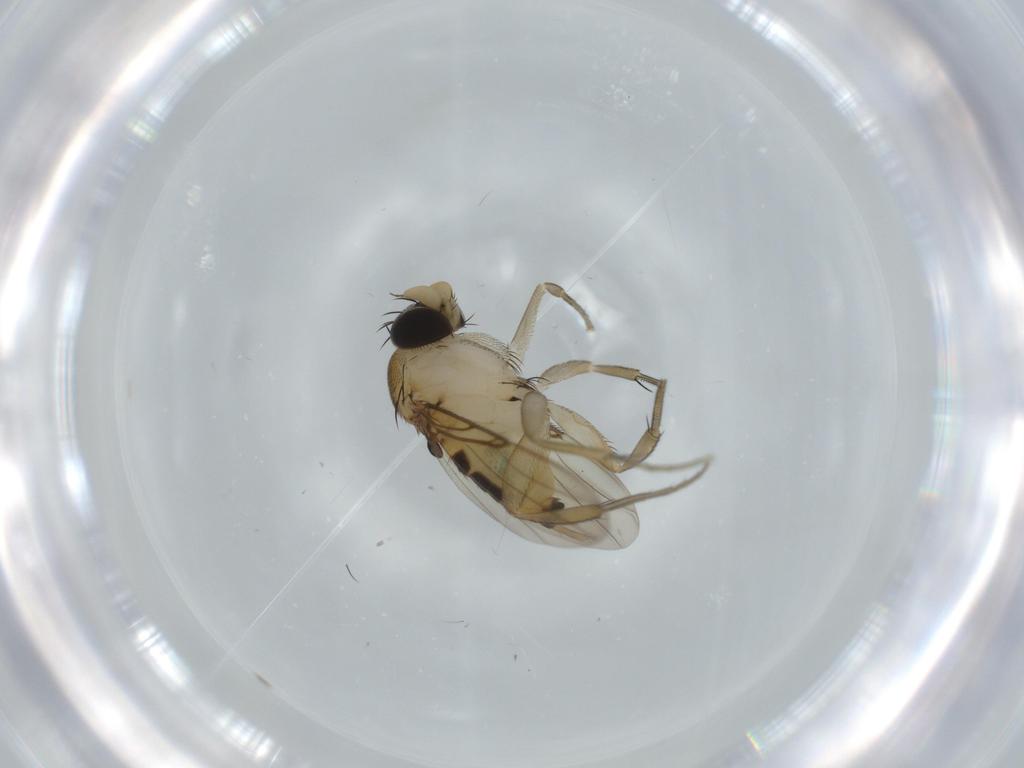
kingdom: Animalia
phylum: Arthropoda
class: Insecta
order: Diptera
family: Phoridae
